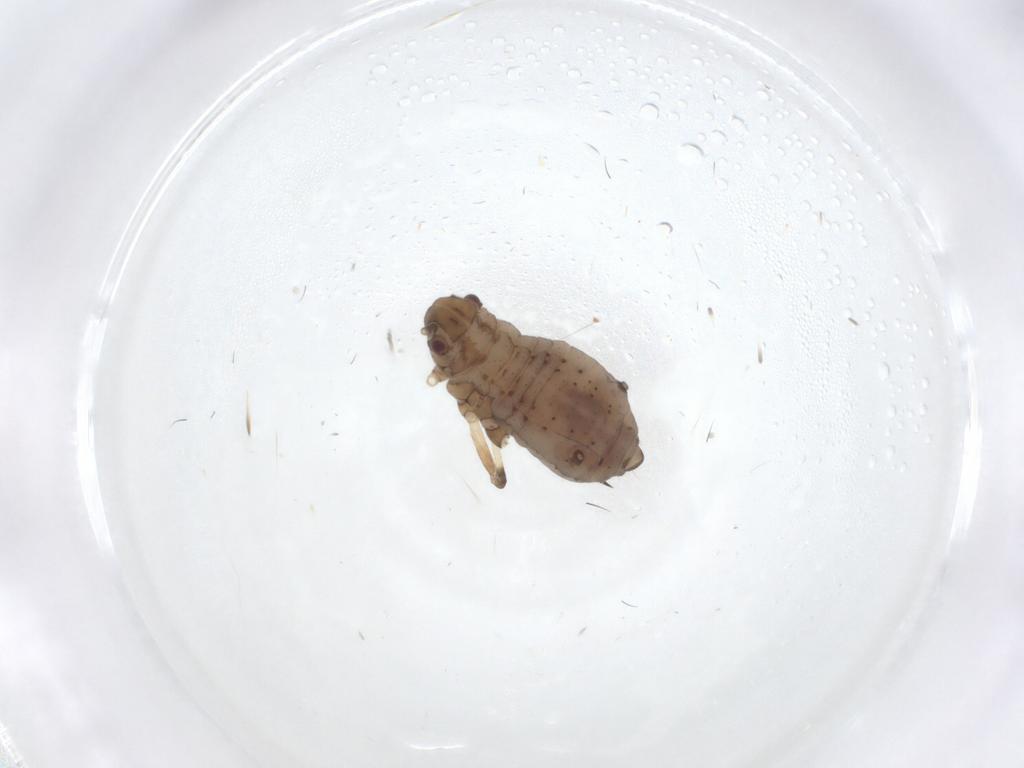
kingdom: Animalia
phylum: Arthropoda
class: Insecta
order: Hemiptera
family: Aphididae
